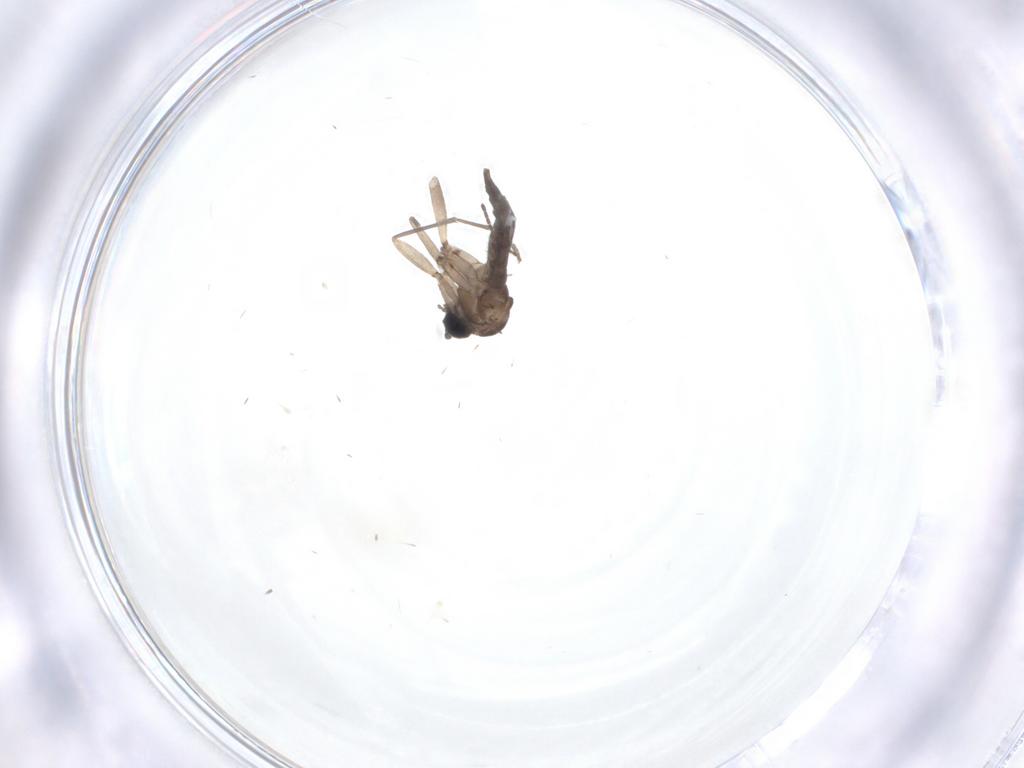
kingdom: Animalia
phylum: Arthropoda
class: Insecta
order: Diptera
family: Sciaridae
